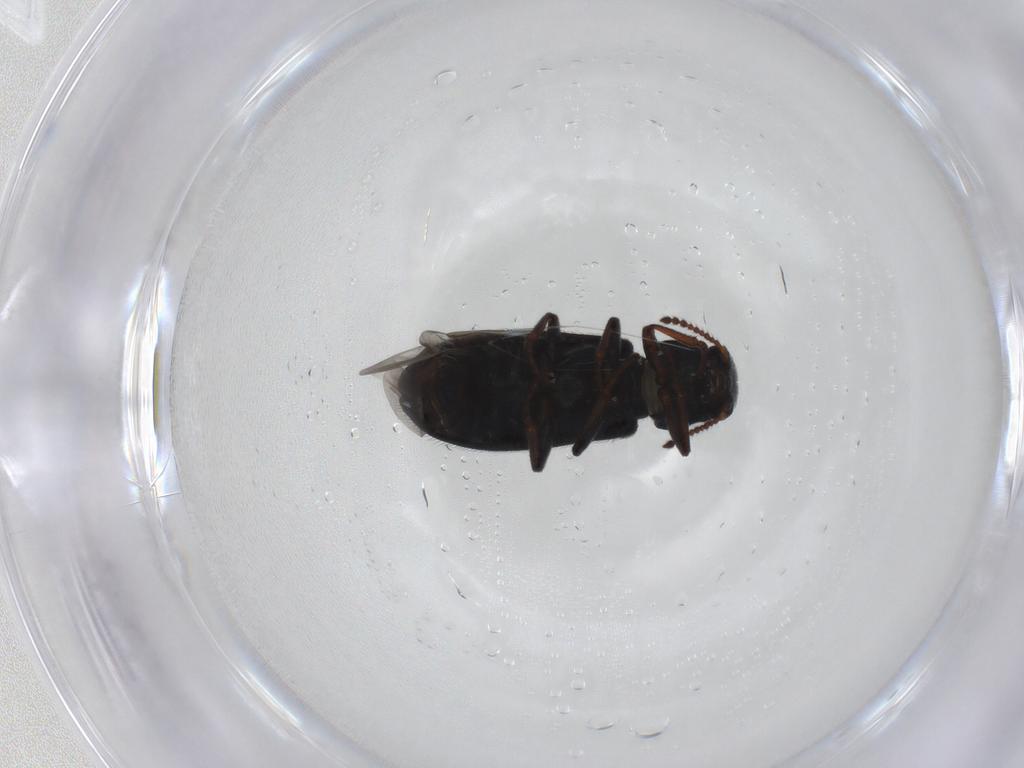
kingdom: Animalia
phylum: Arthropoda
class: Insecta
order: Coleoptera
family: Melyridae
